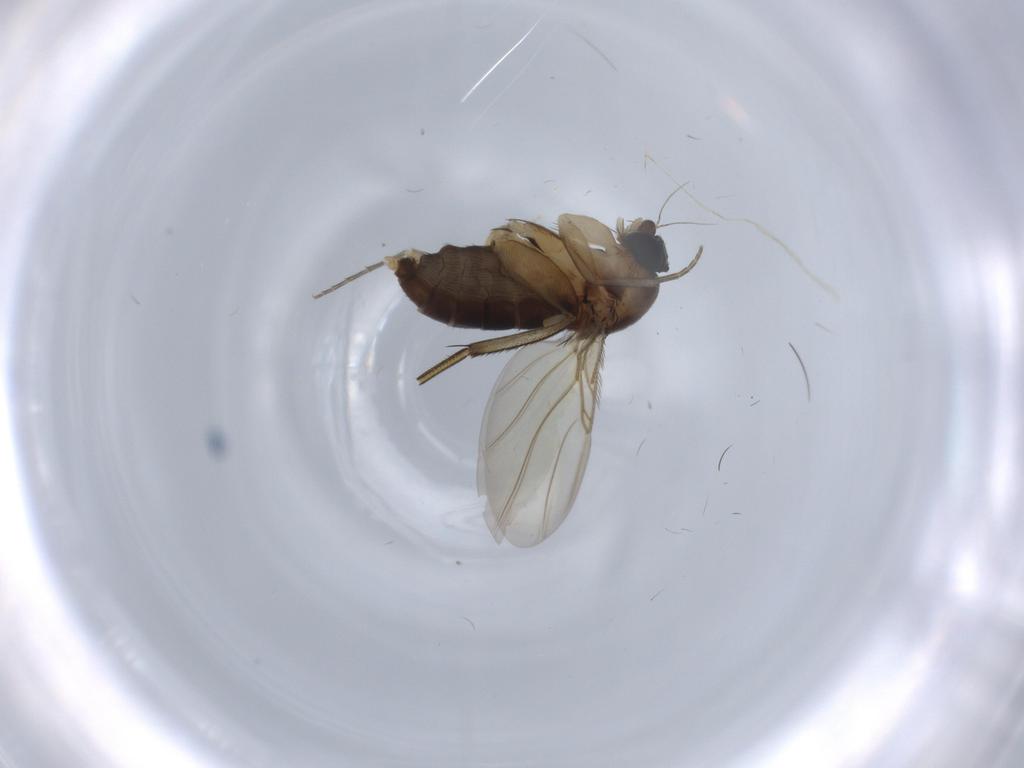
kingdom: Animalia
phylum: Arthropoda
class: Insecta
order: Diptera
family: Phoridae
